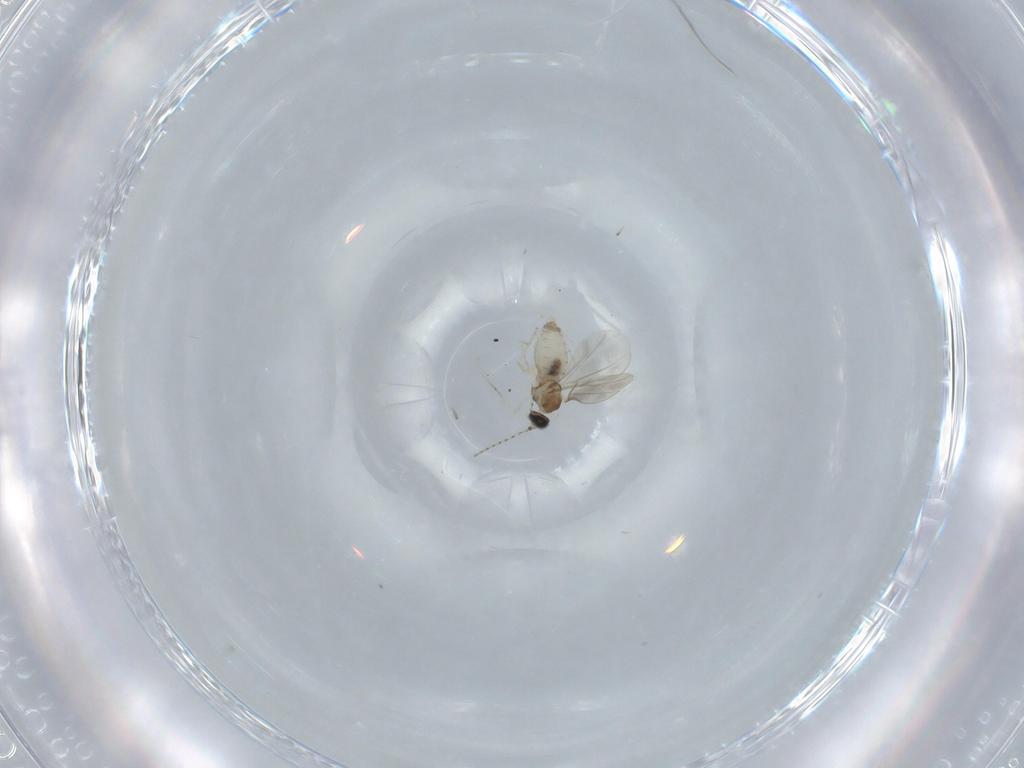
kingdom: Animalia
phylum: Arthropoda
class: Insecta
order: Diptera
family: Cecidomyiidae
